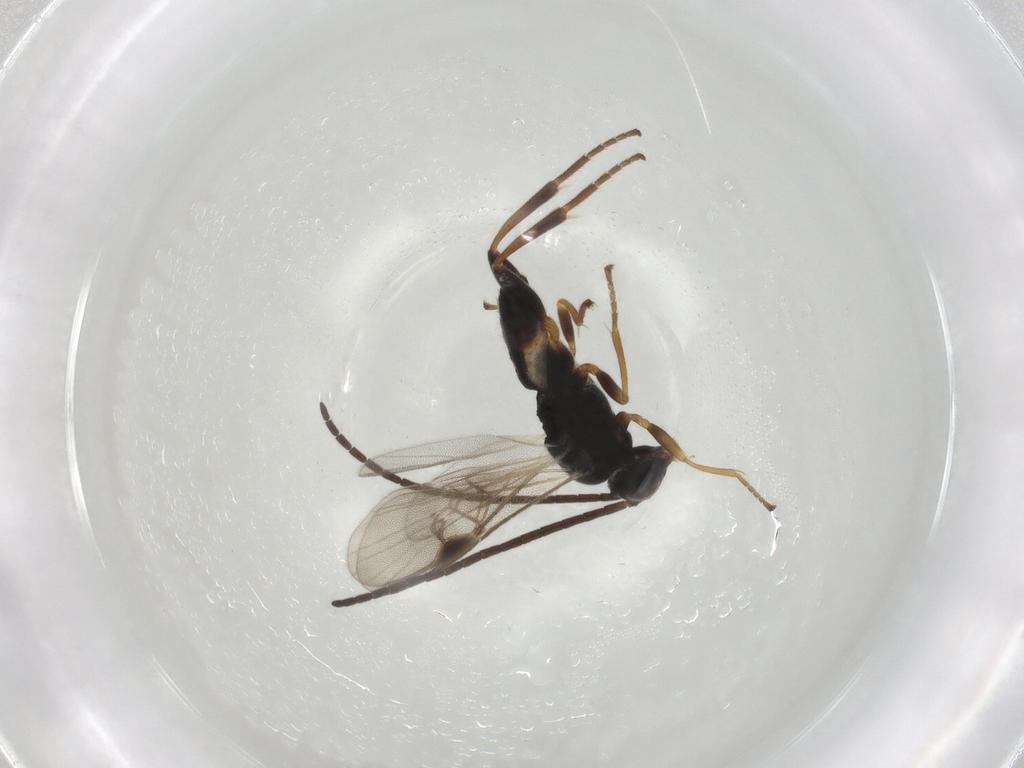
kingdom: Animalia
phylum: Arthropoda
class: Insecta
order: Hymenoptera
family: Braconidae
